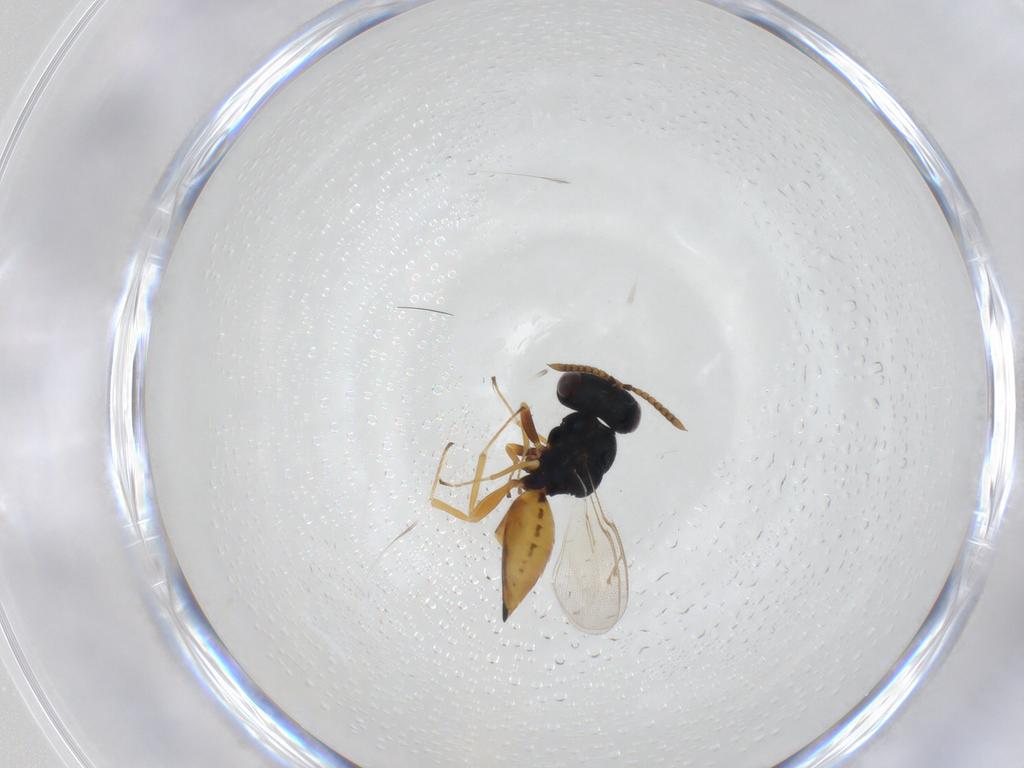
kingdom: Animalia
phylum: Arthropoda
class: Insecta
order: Hymenoptera
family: Pteromalidae
